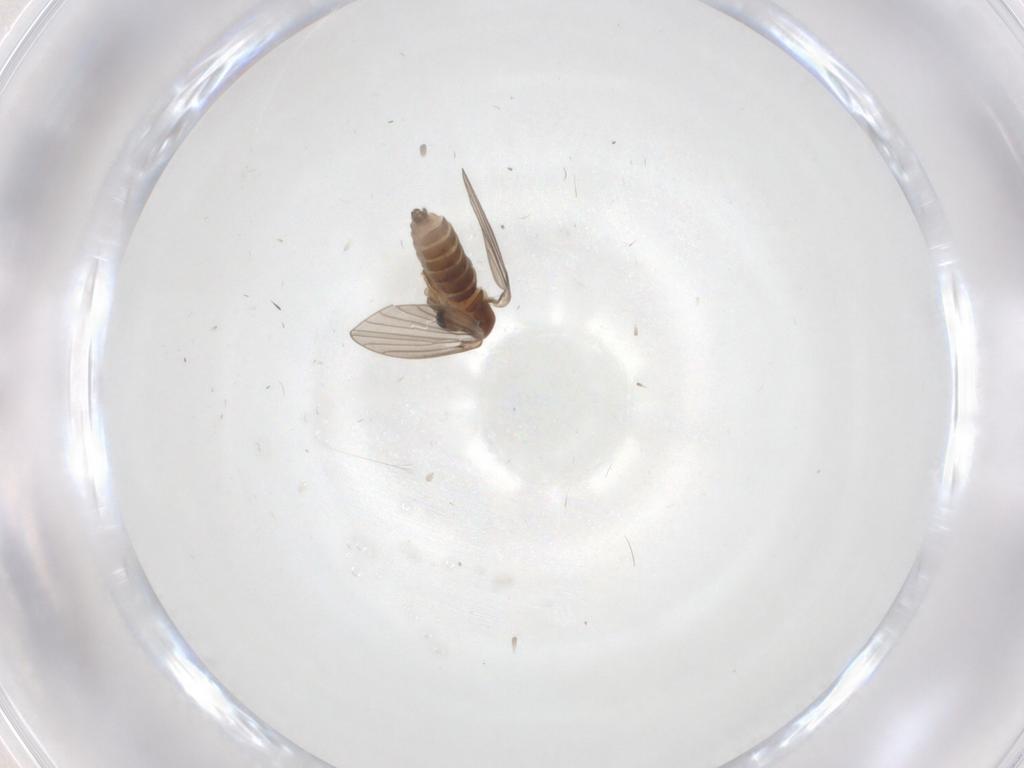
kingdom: Animalia
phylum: Arthropoda
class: Insecta
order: Diptera
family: Psychodidae
